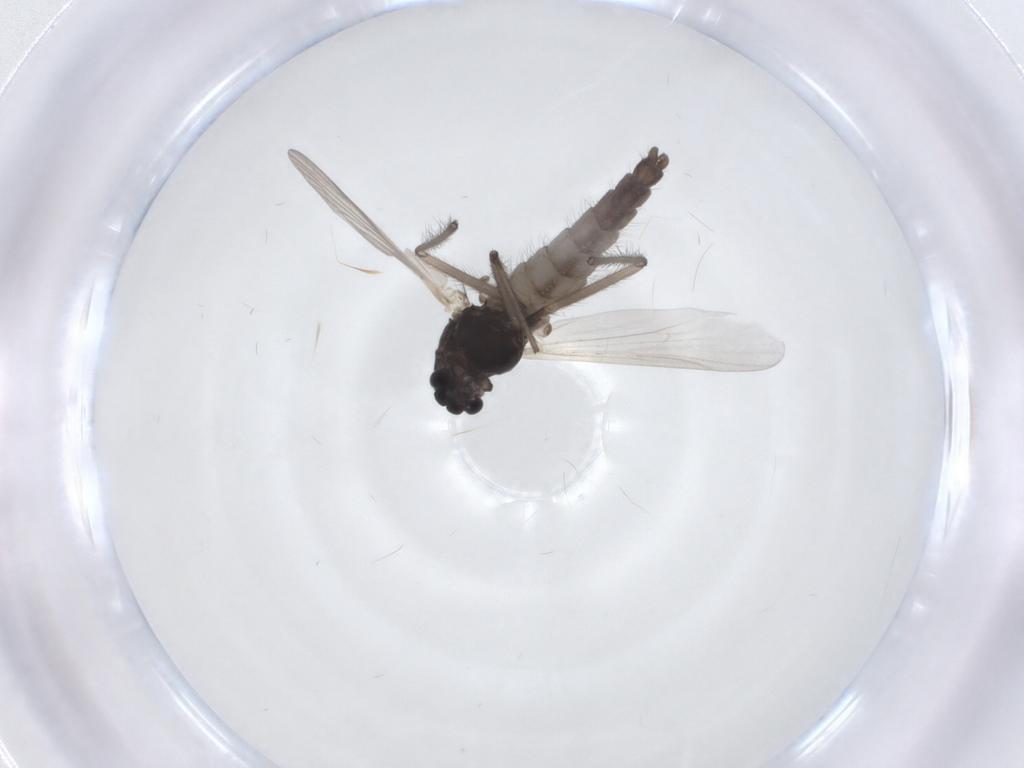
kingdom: Animalia
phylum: Arthropoda
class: Insecta
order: Diptera
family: Chironomidae
